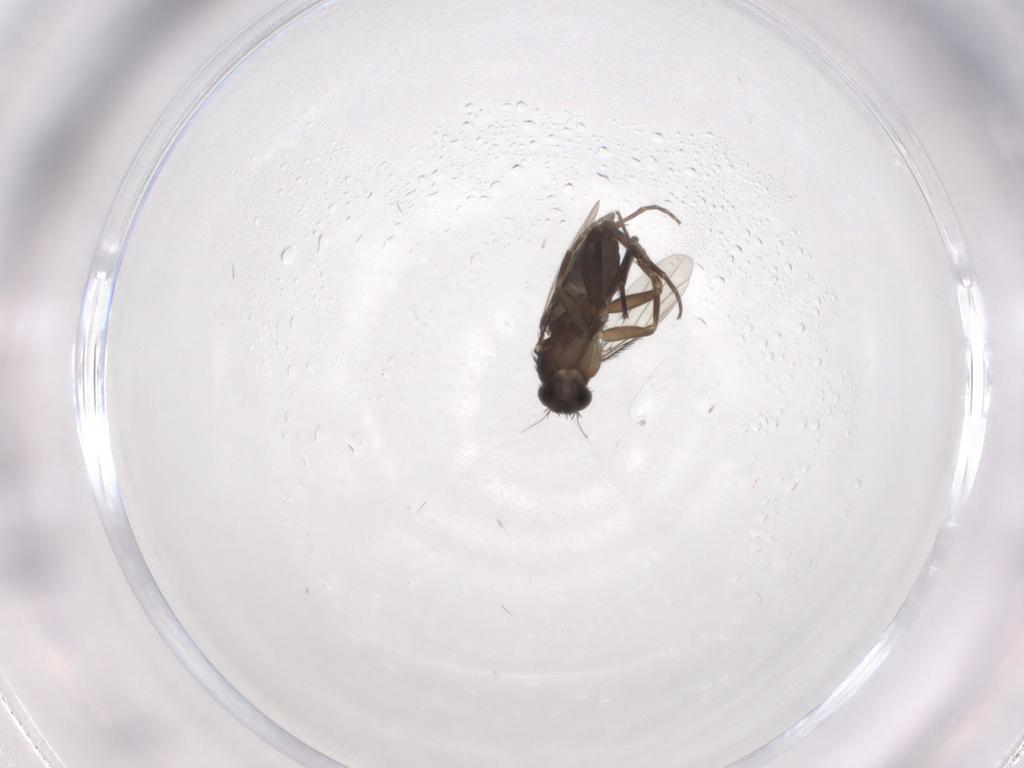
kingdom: Animalia
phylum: Arthropoda
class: Insecta
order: Diptera
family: Phoridae
